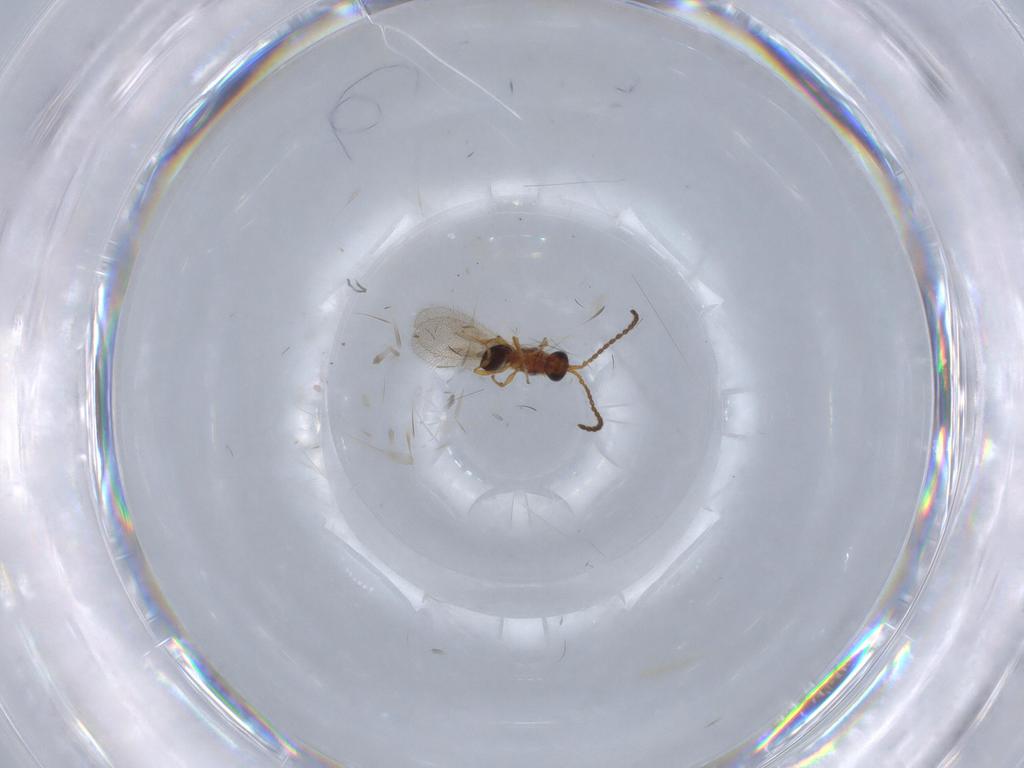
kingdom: Animalia
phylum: Arthropoda
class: Insecta
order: Hymenoptera
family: Diapriidae
